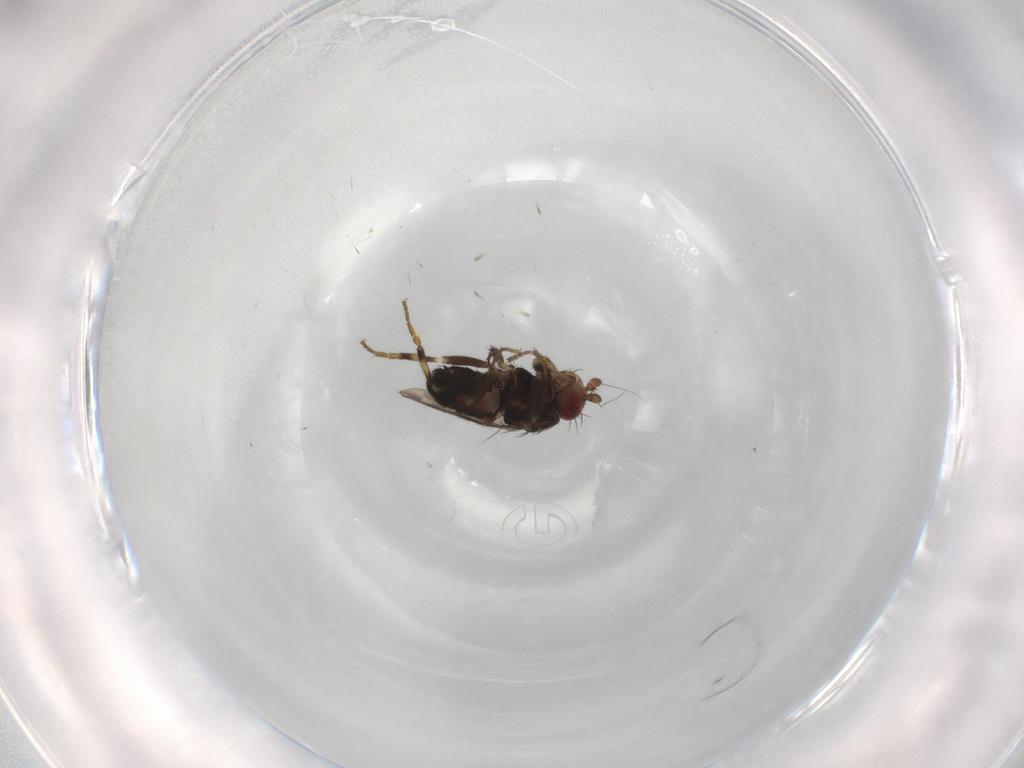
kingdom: Animalia
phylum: Arthropoda
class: Insecta
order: Diptera
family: Sphaeroceridae
